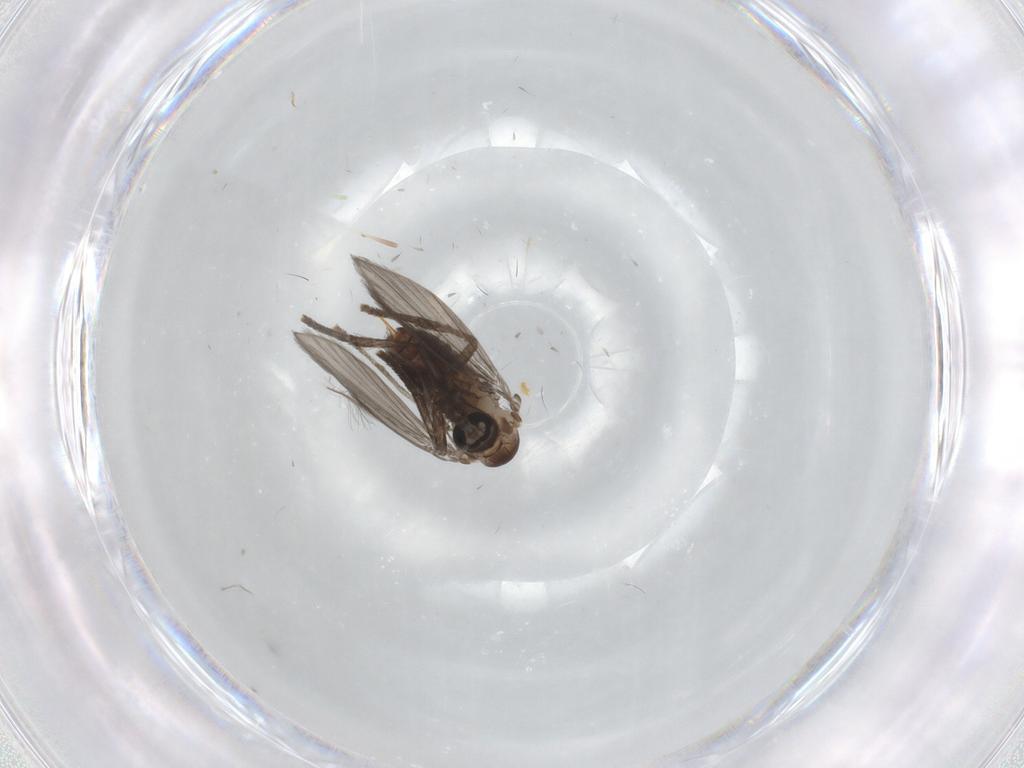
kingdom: Animalia
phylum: Arthropoda
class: Insecta
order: Diptera
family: Psychodidae
